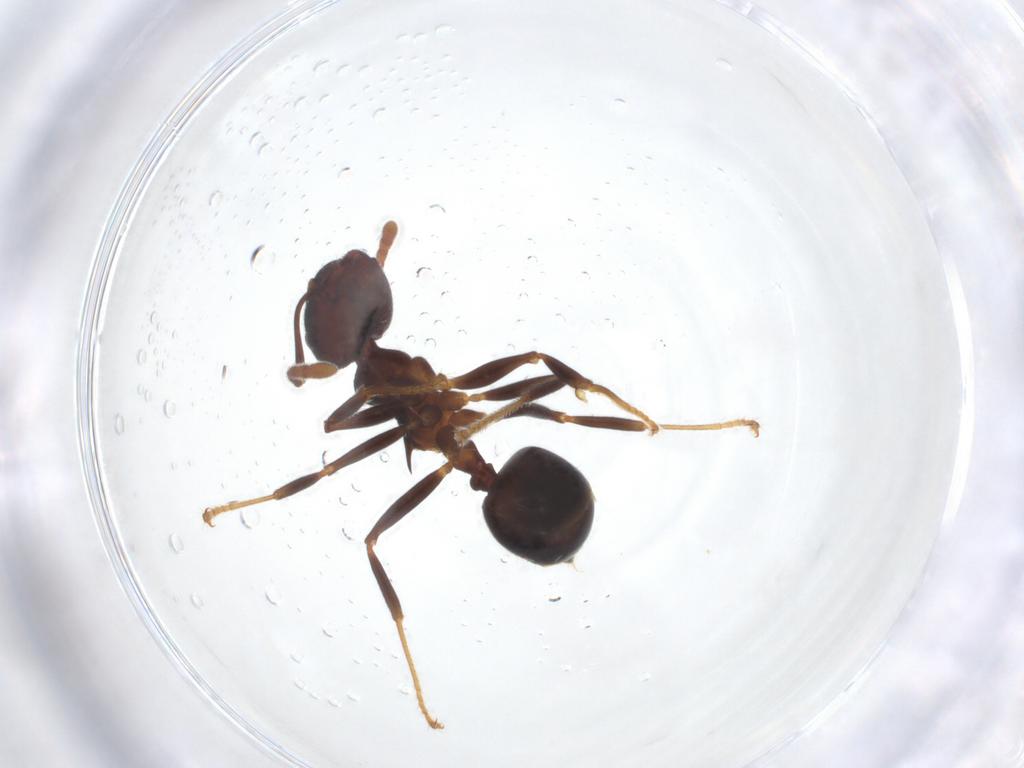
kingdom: Animalia
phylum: Arthropoda
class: Insecta
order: Hymenoptera
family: Formicidae
